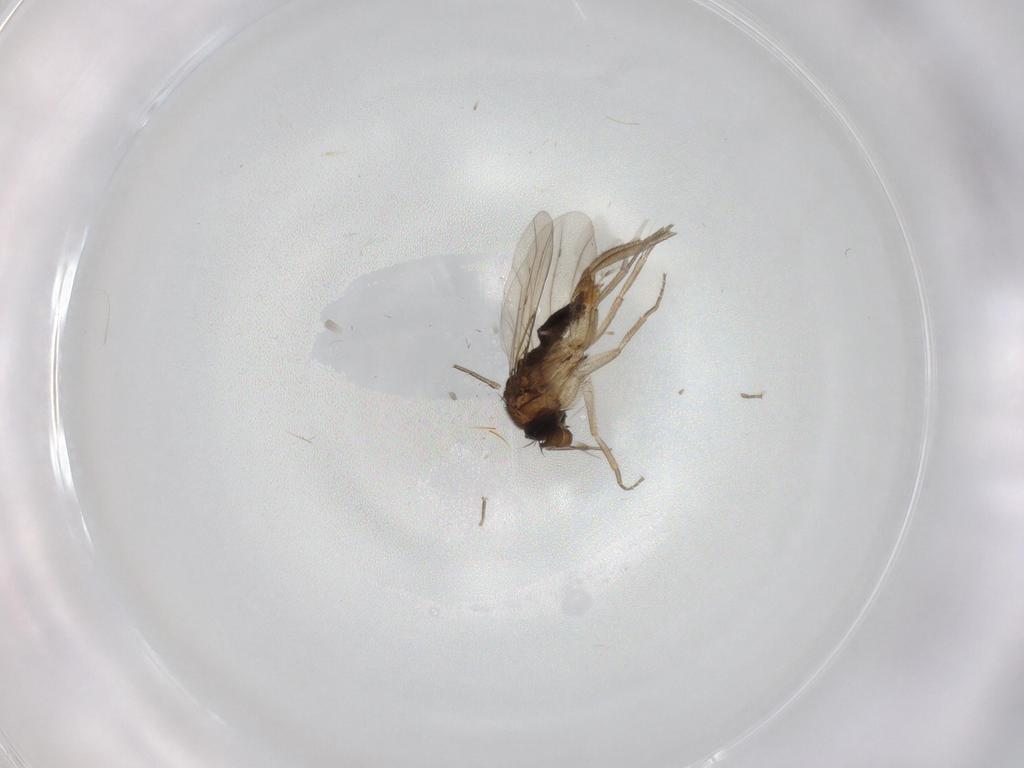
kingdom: Animalia
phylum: Arthropoda
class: Insecta
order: Diptera
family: Phoridae
